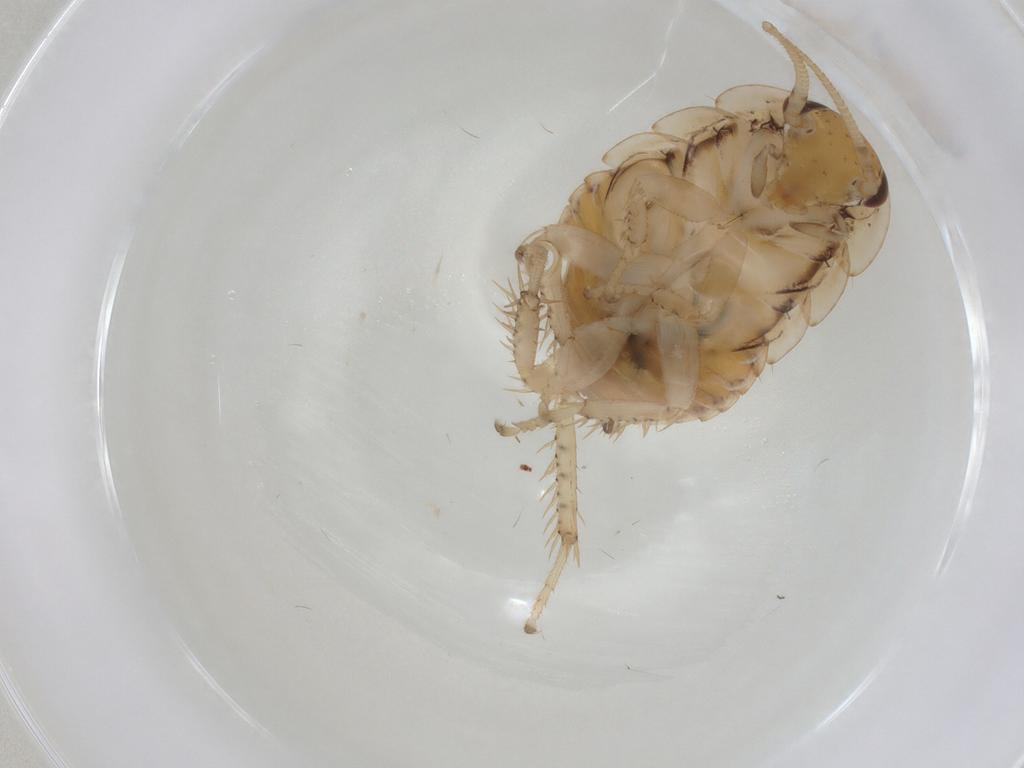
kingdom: Animalia
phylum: Arthropoda
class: Insecta
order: Blattodea
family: Blaberidae
